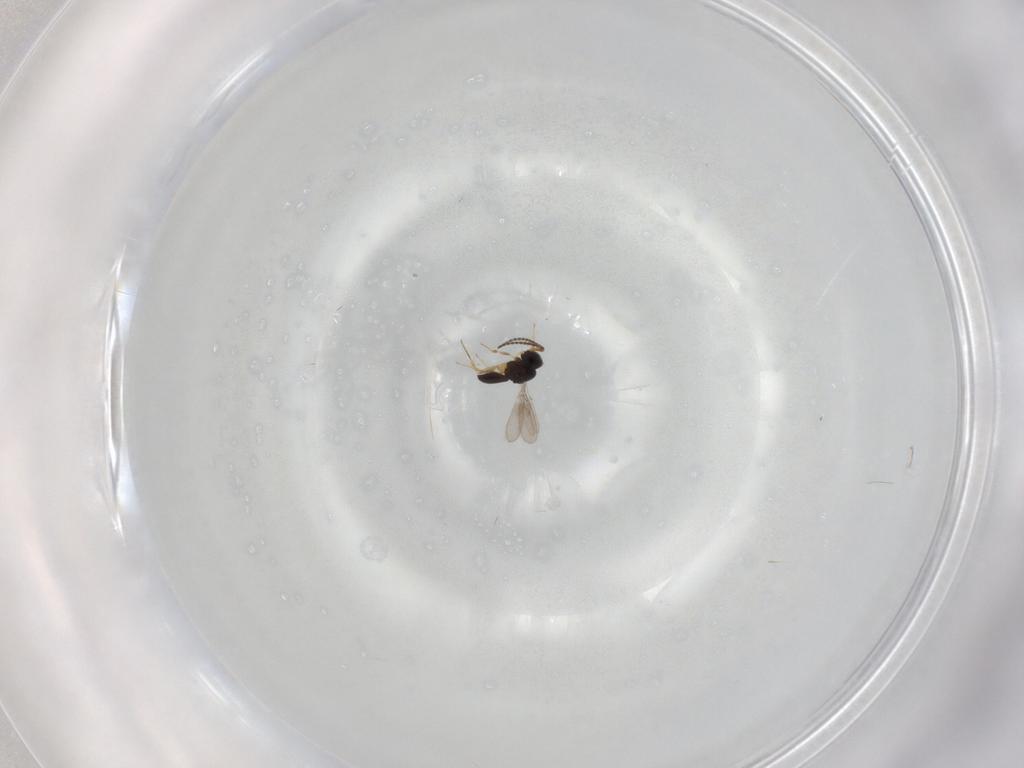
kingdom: Animalia
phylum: Arthropoda
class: Insecta
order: Hymenoptera
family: Scelionidae
